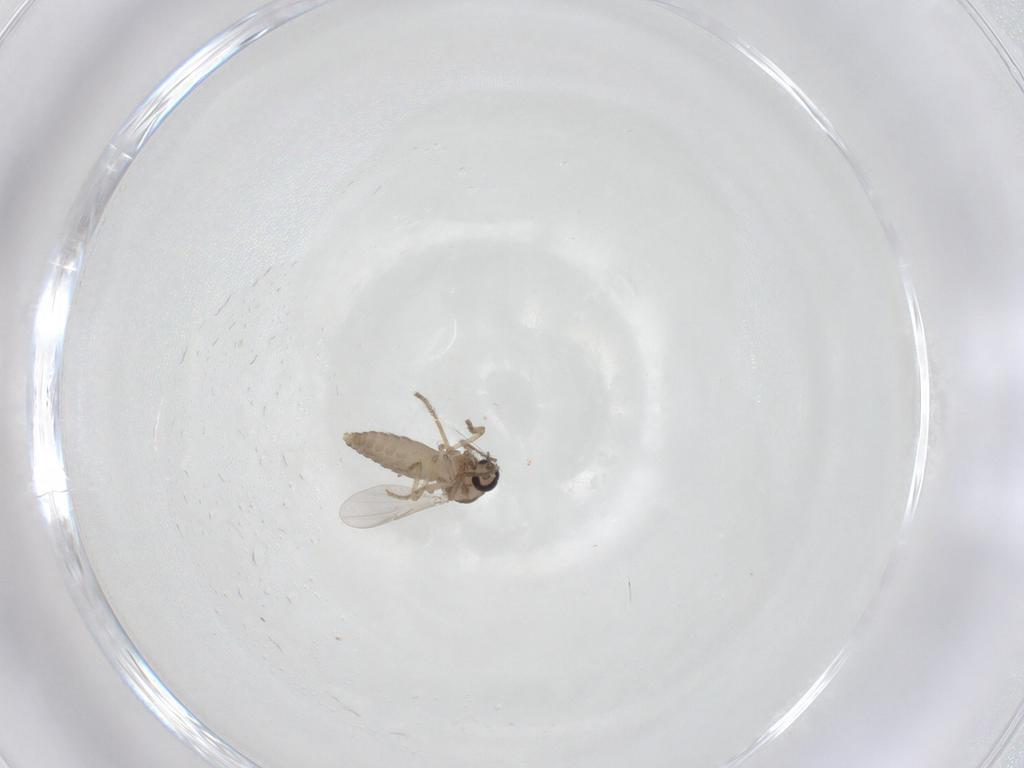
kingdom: Animalia
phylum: Arthropoda
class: Insecta
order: Diptera
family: Ceratopogonidae
